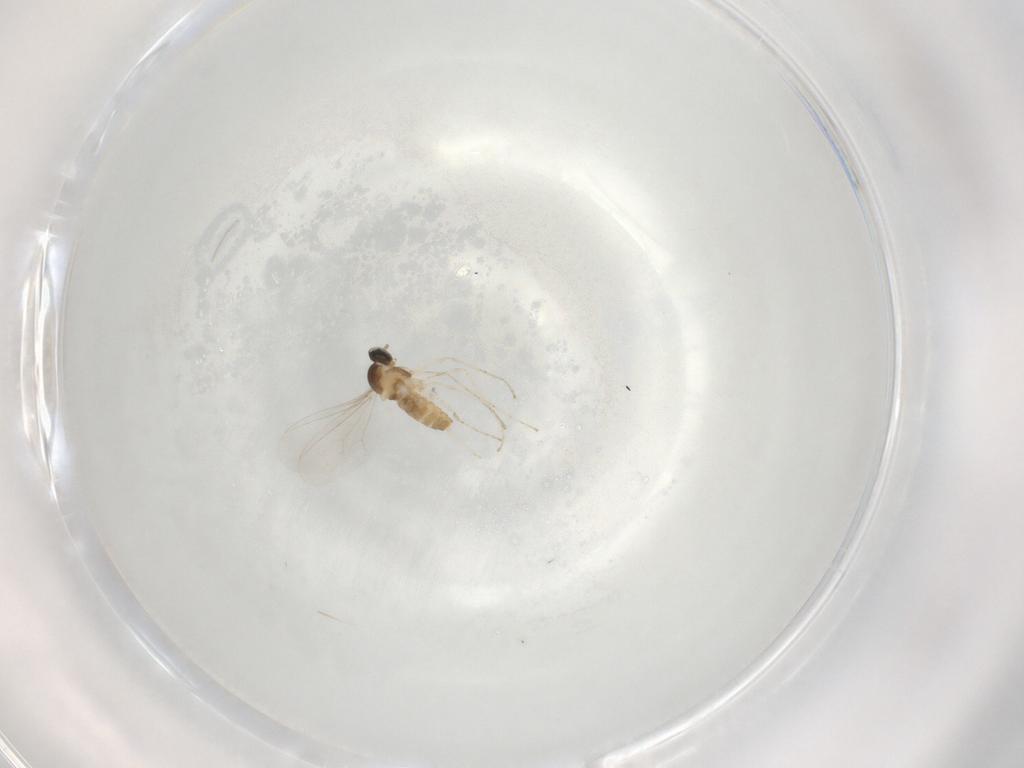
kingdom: Animalia
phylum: Arthropoda
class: Insecta
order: Diptera
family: Cecidomyiidae
